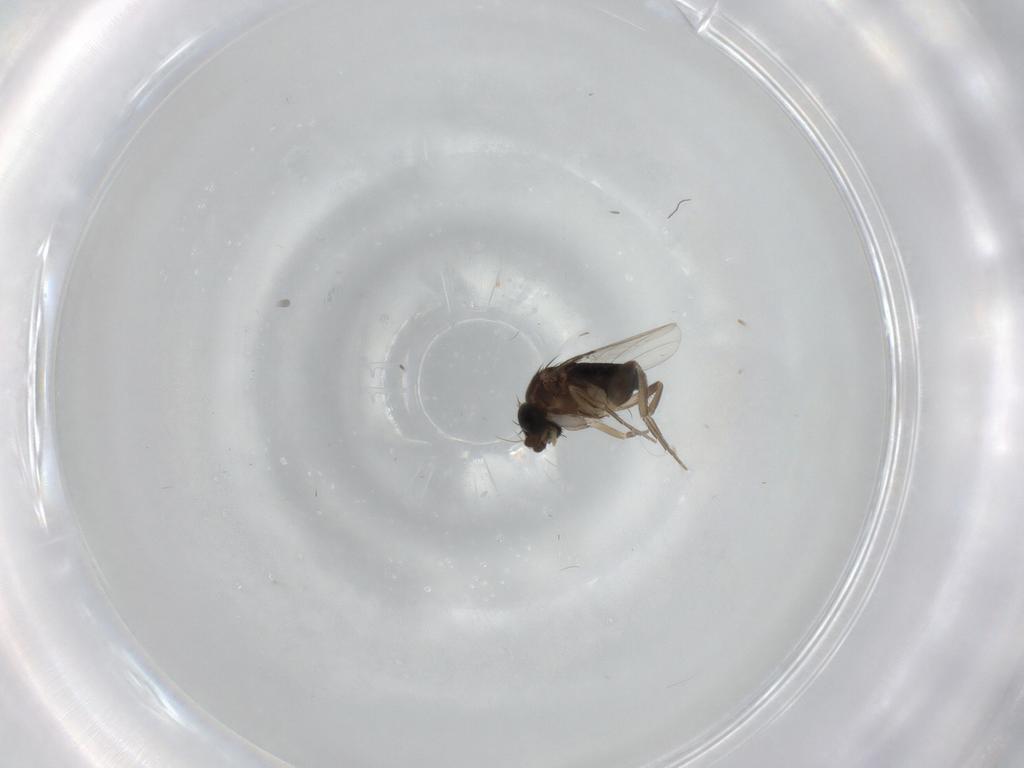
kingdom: Animalia
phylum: Arthropoda
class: Insecta
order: Diptera
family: Phoridae
